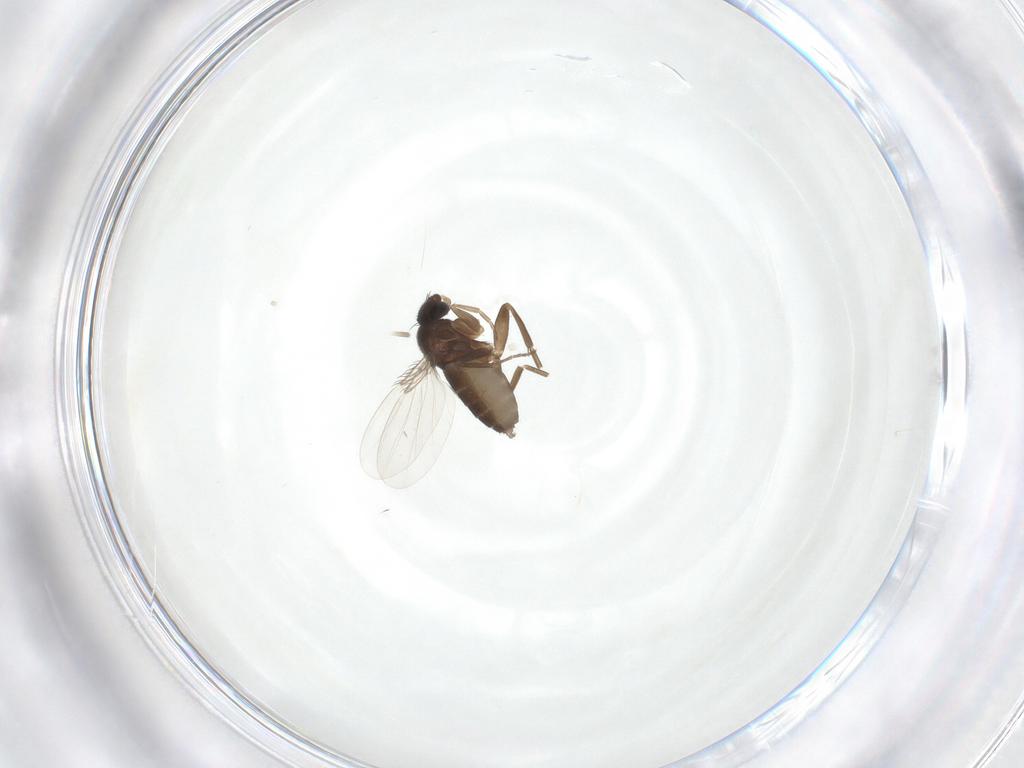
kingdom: Animalia
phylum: Arthropoda
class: Insecta
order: Diptera
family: Phoridae
